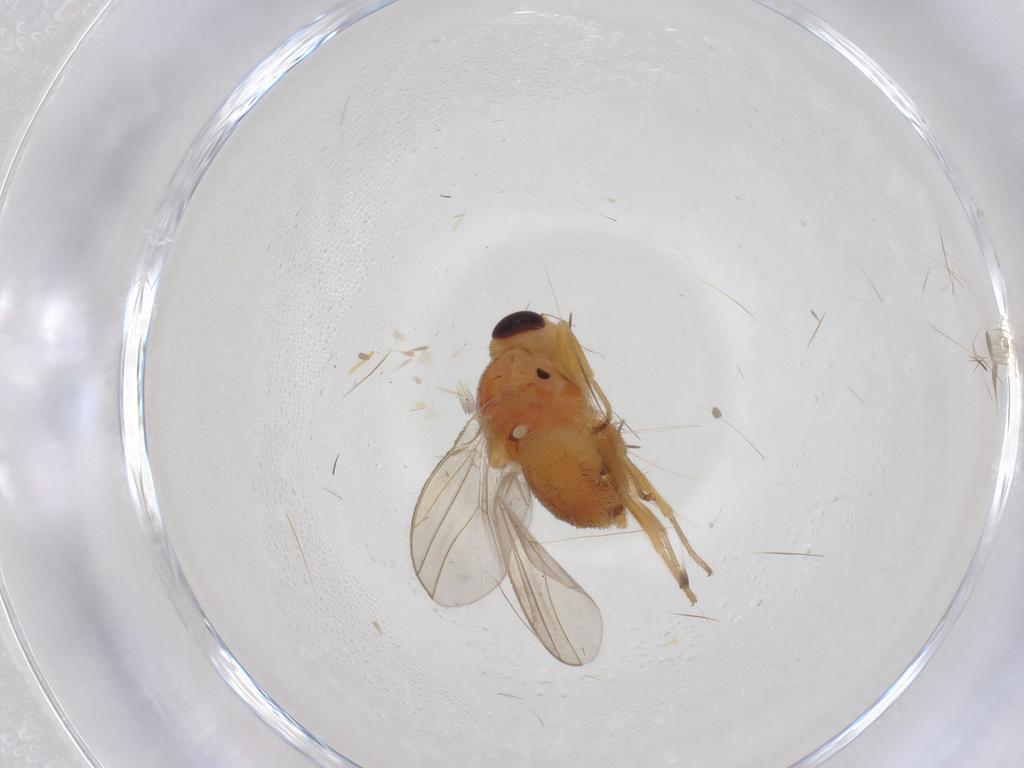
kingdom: Animalia
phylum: Arthropoda
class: Insecta
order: Diptera
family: Chloropidae
